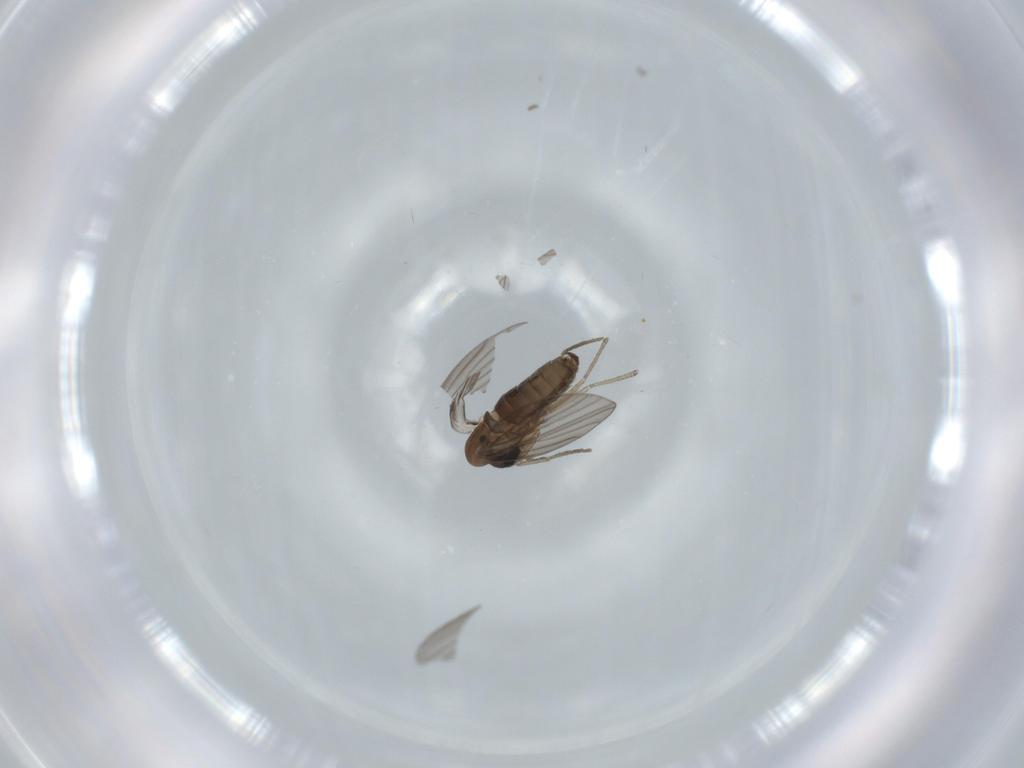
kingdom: Animalia
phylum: Arthropoda
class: Insecta
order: Diptera
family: Psychodidae
